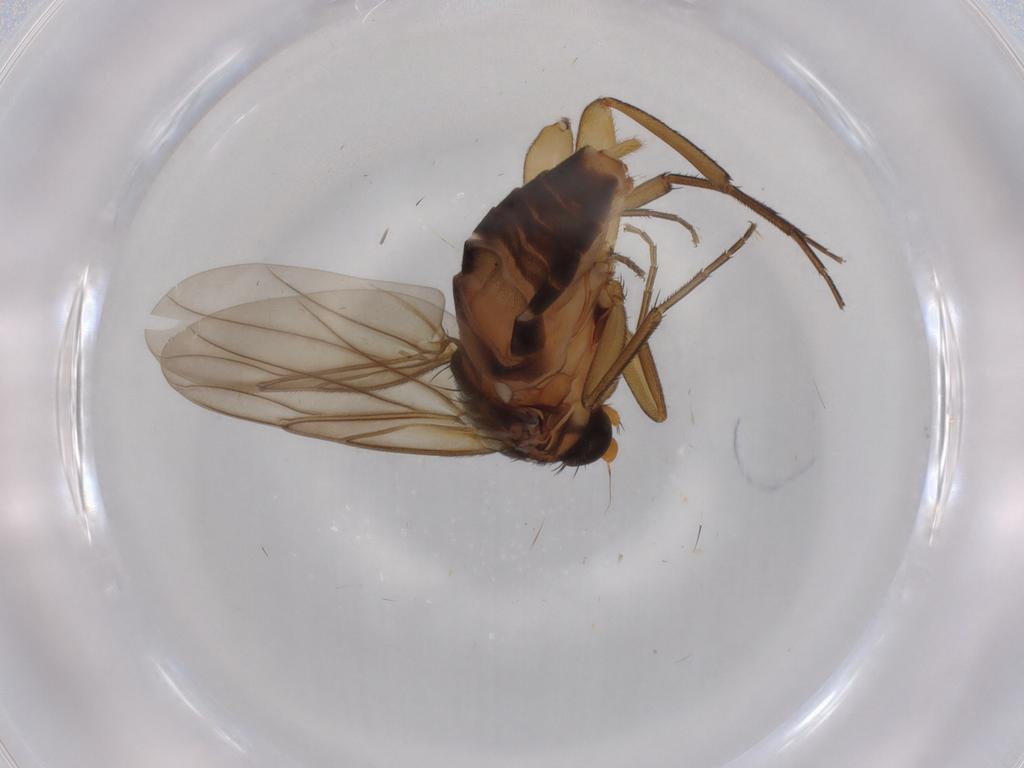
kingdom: Animalia
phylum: Arthropoda
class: Insecta
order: Diptera
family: Phoridae
